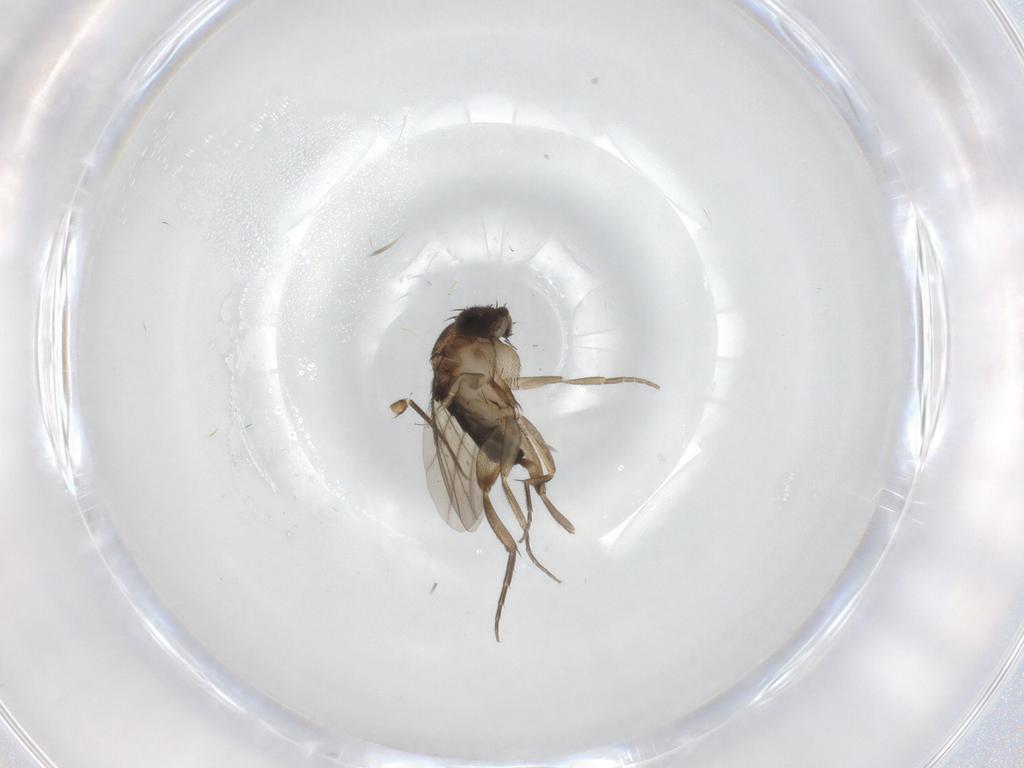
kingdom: Animalia
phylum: Arthropoda
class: Insecta
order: Diptera
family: Phoridae
